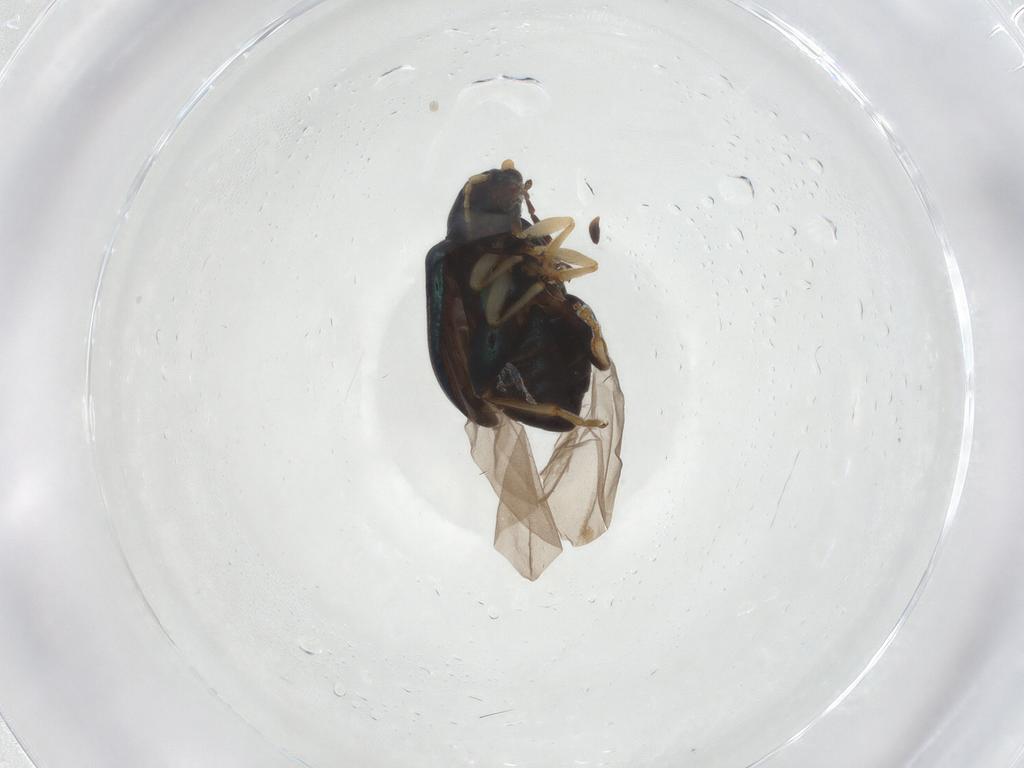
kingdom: Animalia
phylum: Arthropoda
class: Insecta
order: Coleoptera
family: Chrysomelidae
